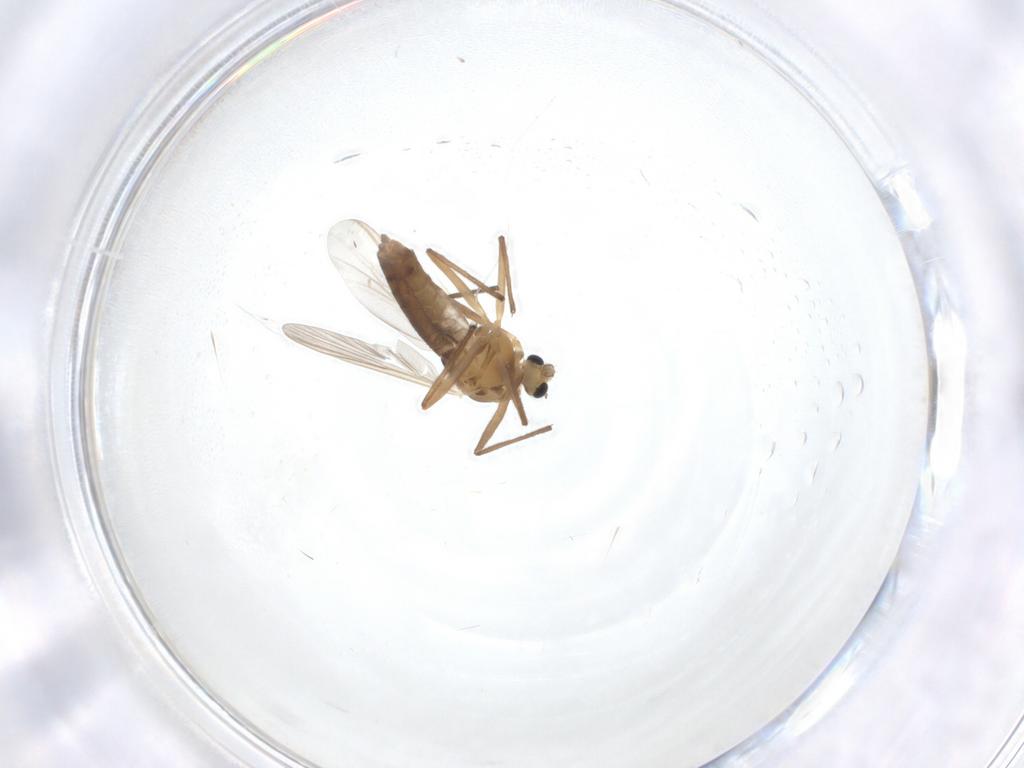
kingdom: Animalia
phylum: Arthropoda
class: Insecta
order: Diptera
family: Chironomidae
